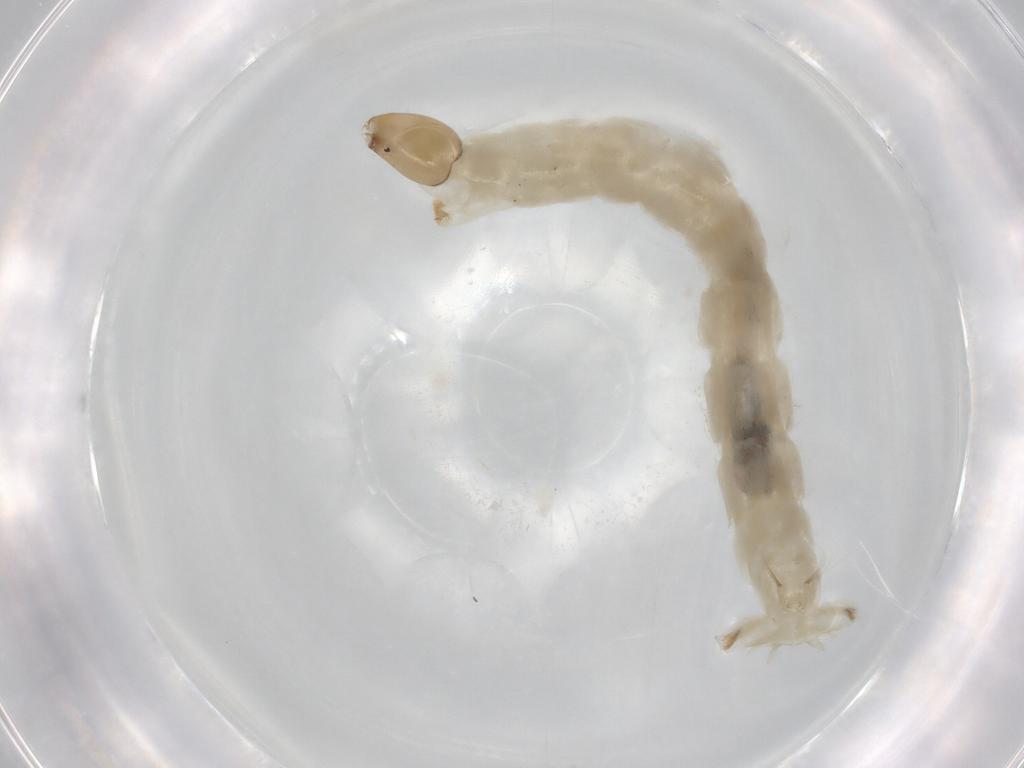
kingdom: Animalia
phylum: Arthropoda
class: Insecta
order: Diptera
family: Chironomidae
